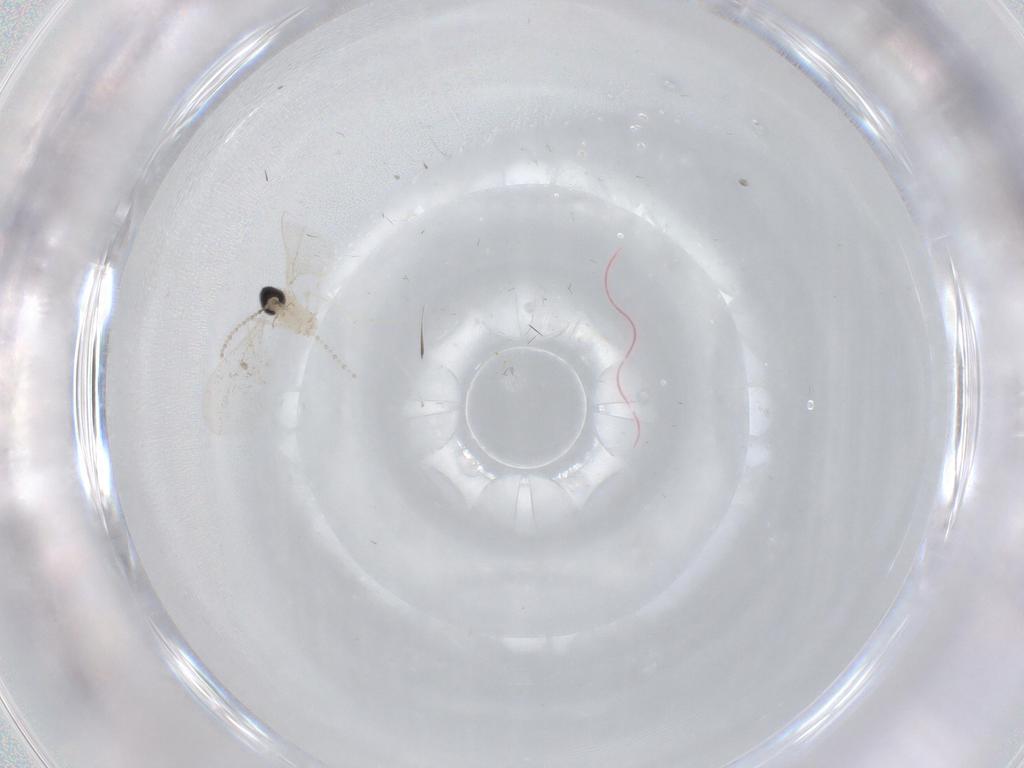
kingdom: Animalia
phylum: Arthropoda
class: Insecta
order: Diptera
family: Cecidomyiidae
